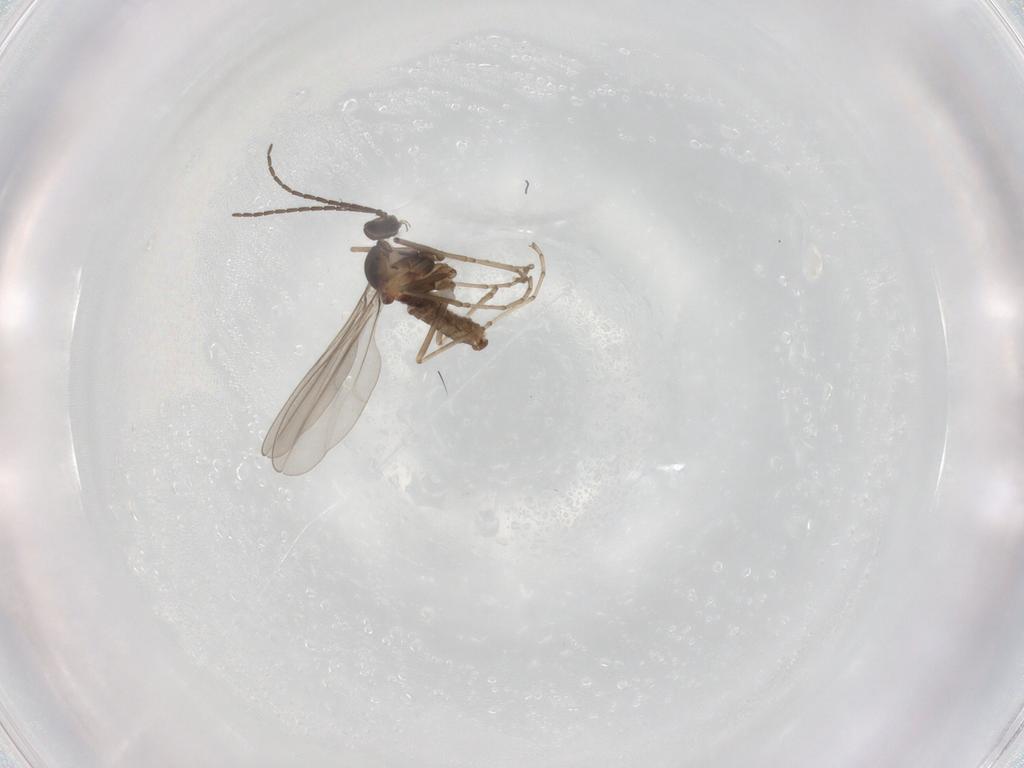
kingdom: Animalia
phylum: Arthropoda
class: Insecta
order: Diptera
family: Cecidomyiidae
